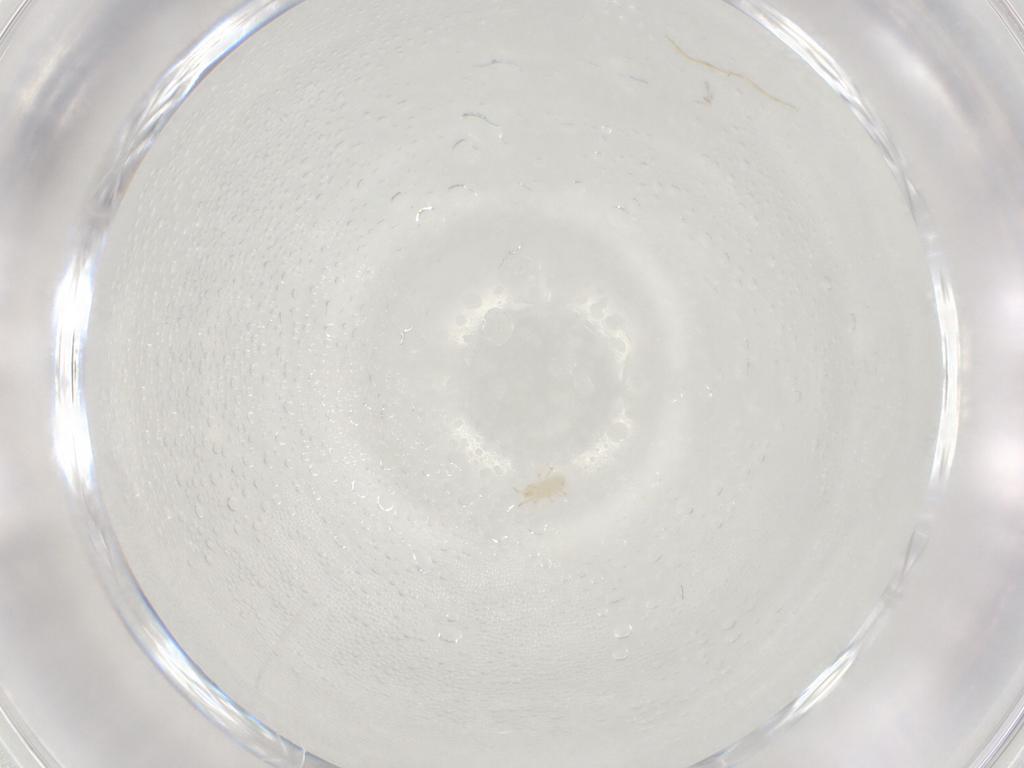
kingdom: Animalia
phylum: Arthropoda
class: Arachnida
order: Mesostigmata
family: Phytoseiidae
